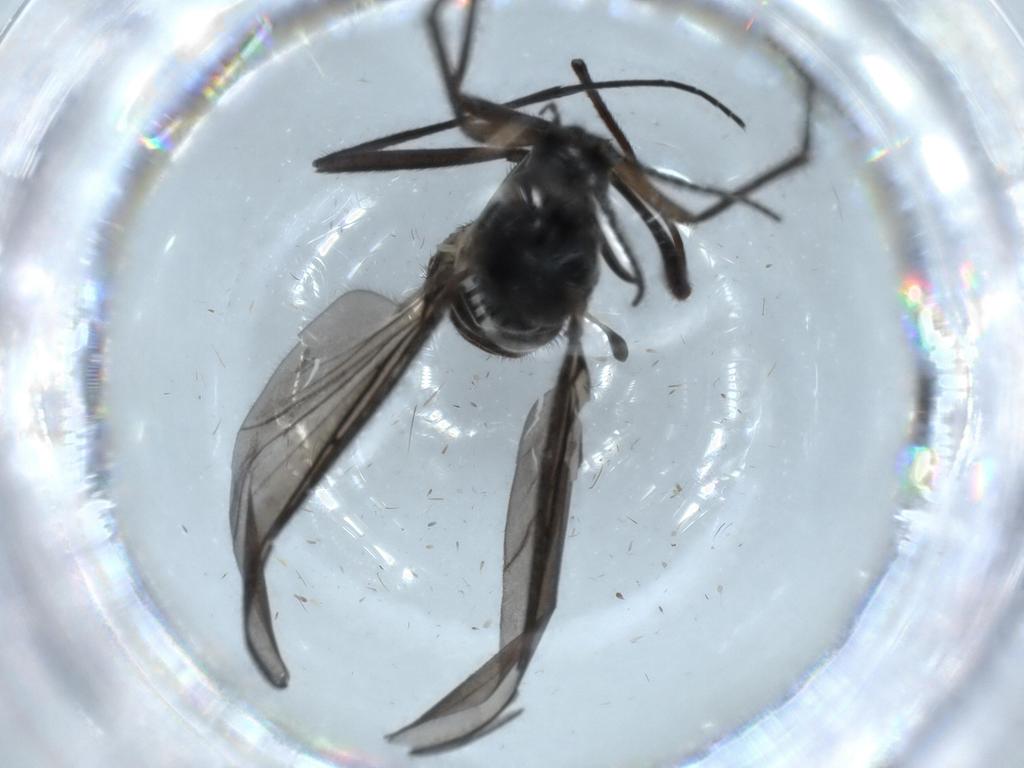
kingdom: Animalia
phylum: Arthropoda
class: Insecta
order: Diptera
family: Sciaridae
